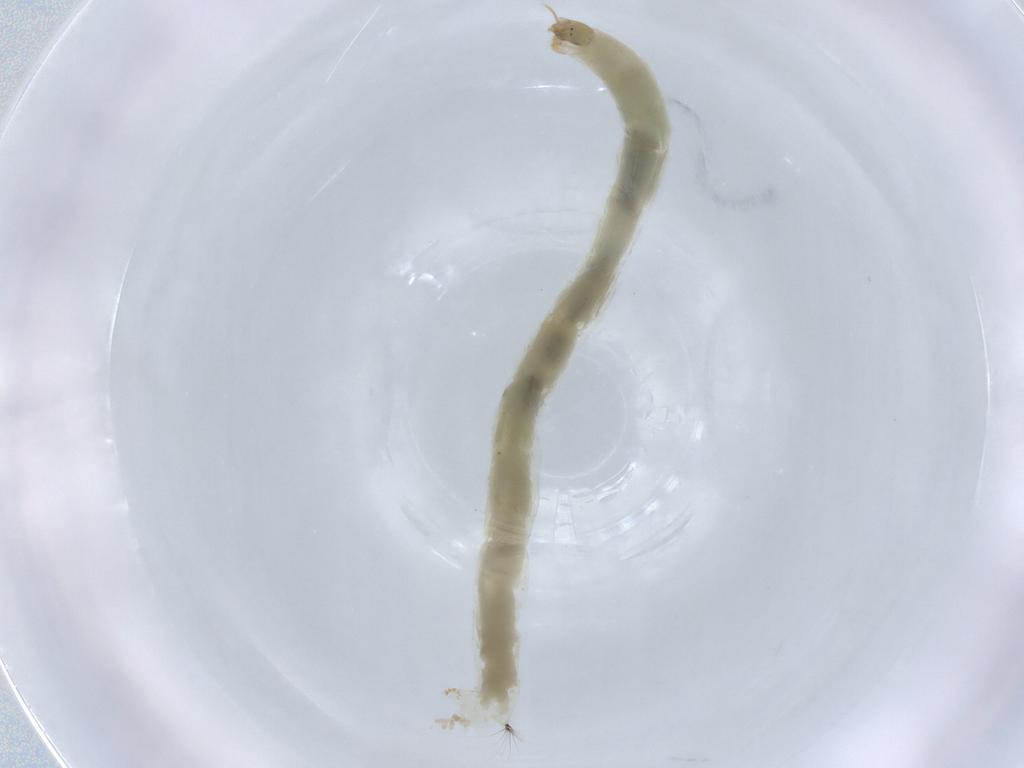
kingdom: Animalia
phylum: Arthropoda
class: Insecta
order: Diptera
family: Chironomidae
